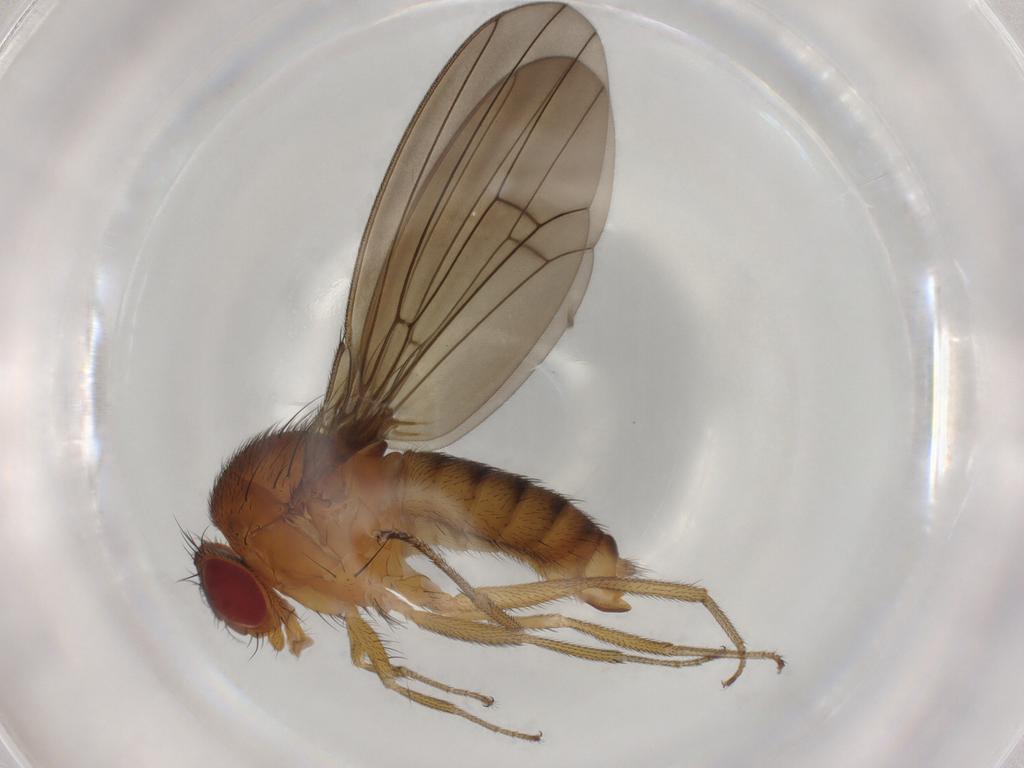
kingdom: Animalia
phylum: Arthropoda
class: Insecta
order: Diptera
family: Drosophilidae
